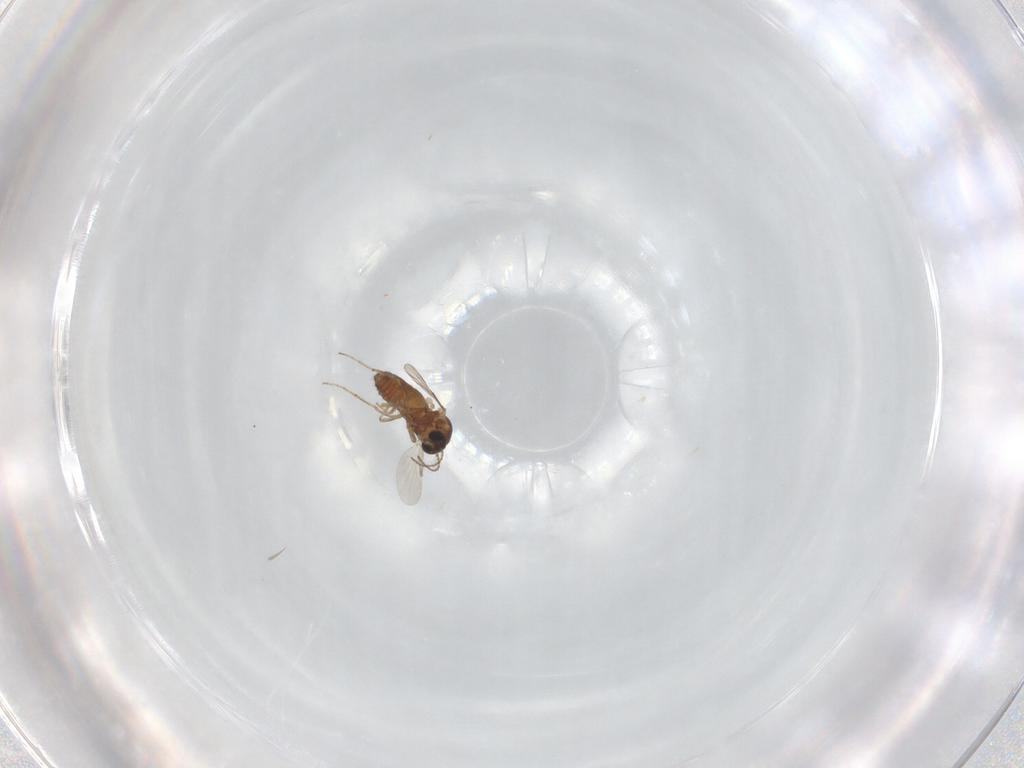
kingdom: Animalia
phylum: Arthropoda
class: Insecta
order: Diptera
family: Ceratopogonidae
